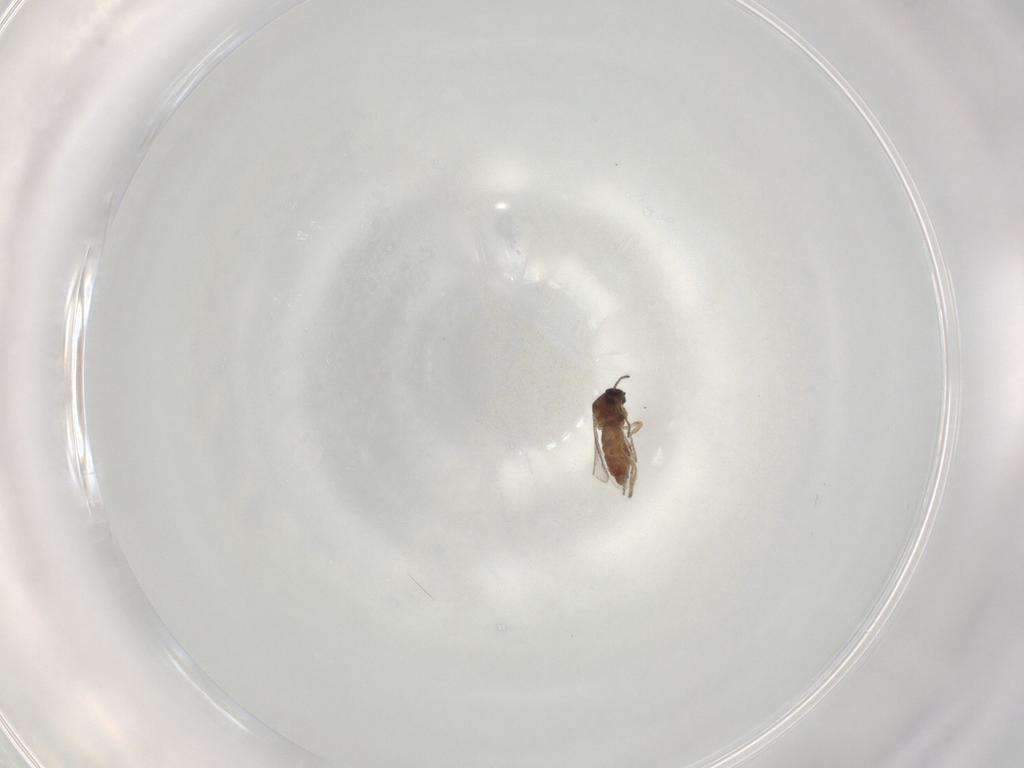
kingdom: Animalia
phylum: Arthropoda
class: Insecta
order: Diptera
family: Ceratopogonidae
